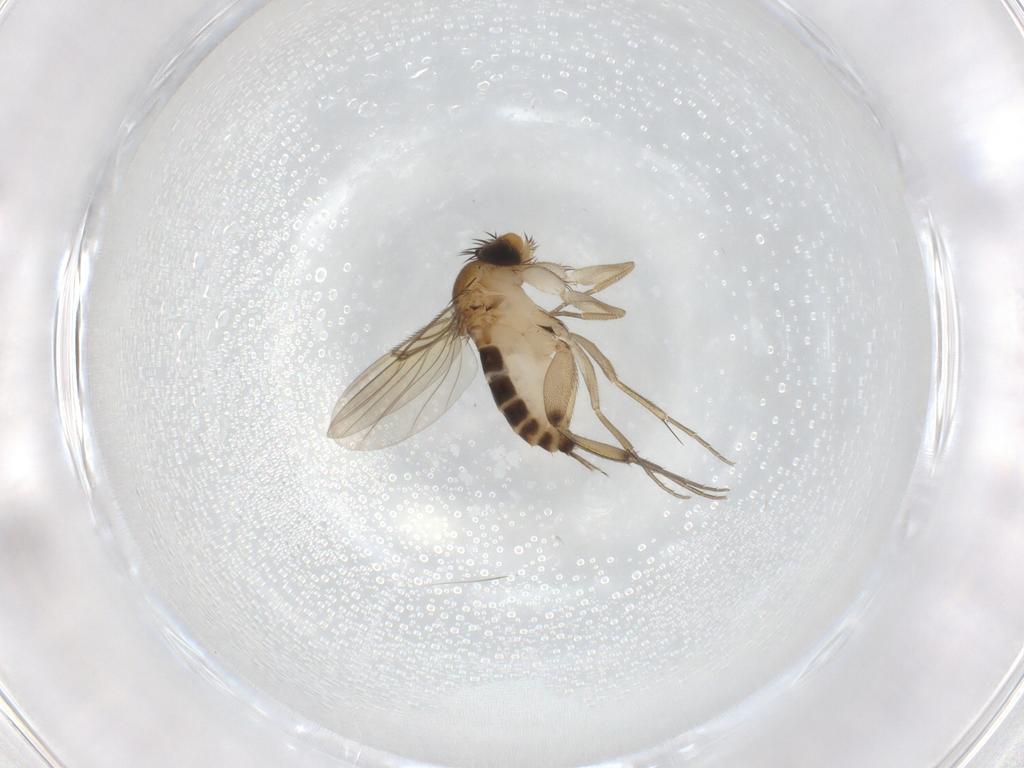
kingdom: Animalia
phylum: Arthropoda
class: Insecta
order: Diptera
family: Phoridae
